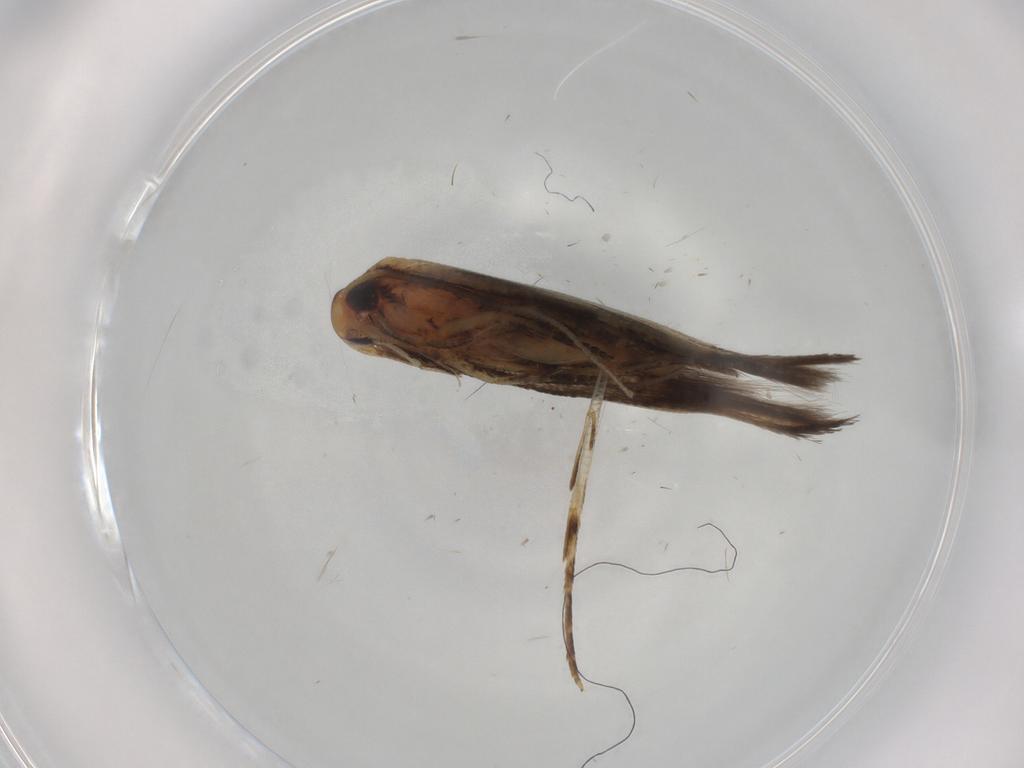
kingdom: Animalia
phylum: Arthropoda
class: Insecta
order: Lepidoptera
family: Cosmopterigidae
